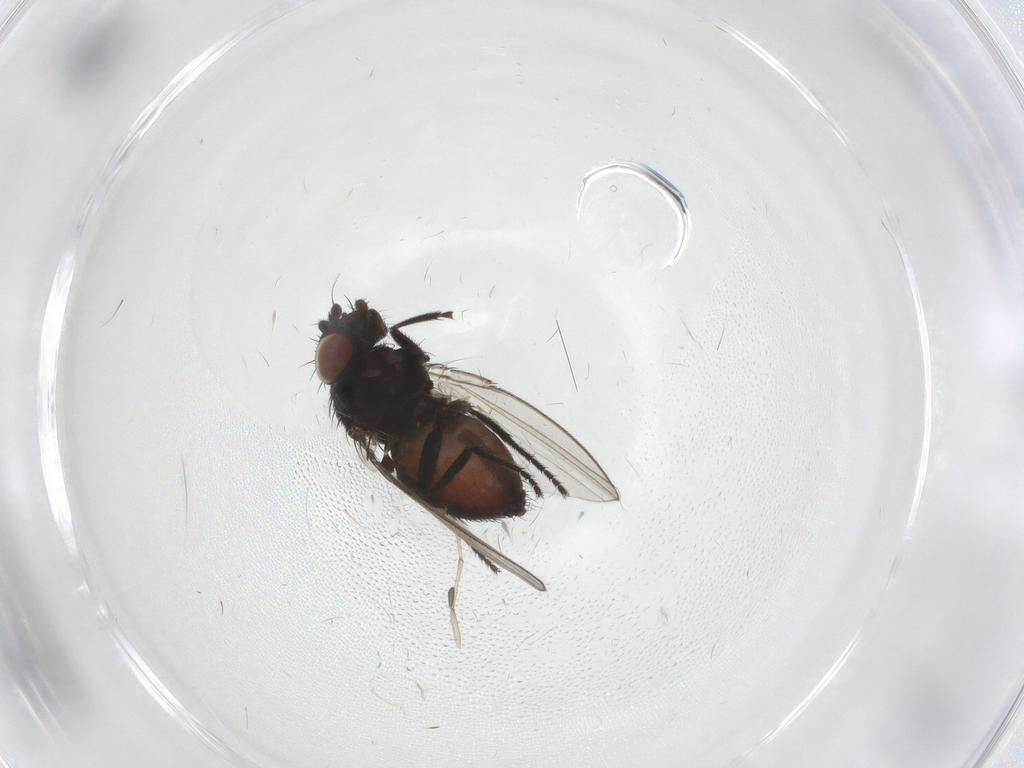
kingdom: Animalia
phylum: Arthropoda
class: Insecta
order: Diptera
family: Milichiidae
